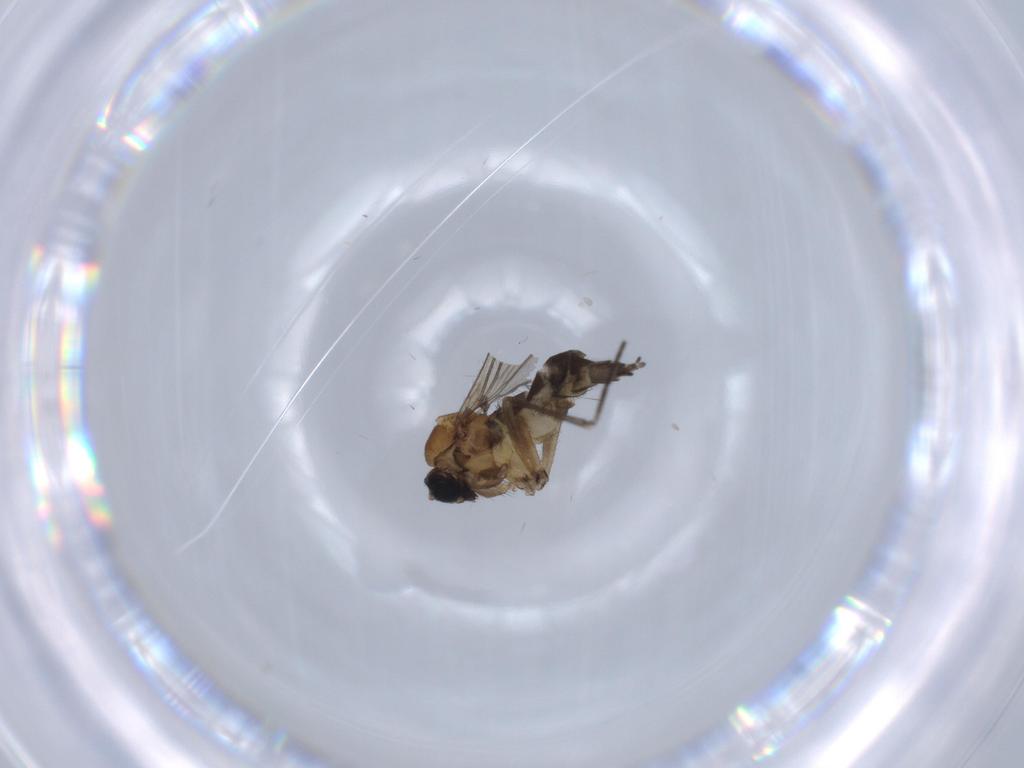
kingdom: Animalia
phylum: Arthropoda
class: Insecta
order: Diptera
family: Sciaridae
